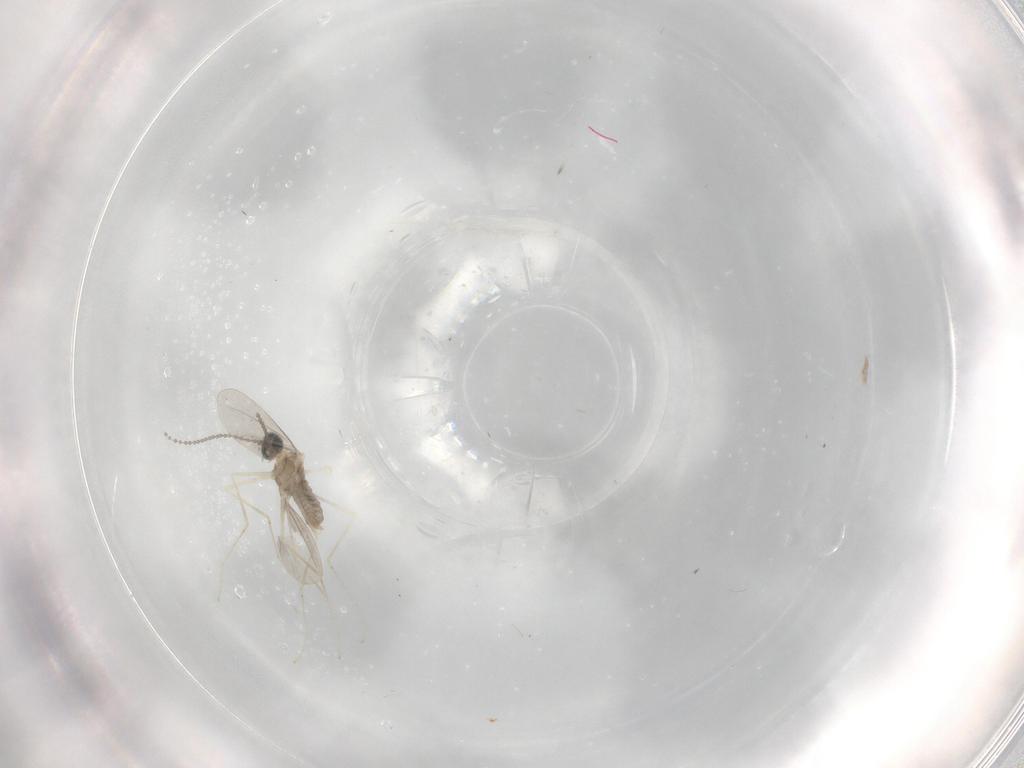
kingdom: Animalia
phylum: Arthropoda
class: Insecta
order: Diptera
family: Cecidomyiidae
